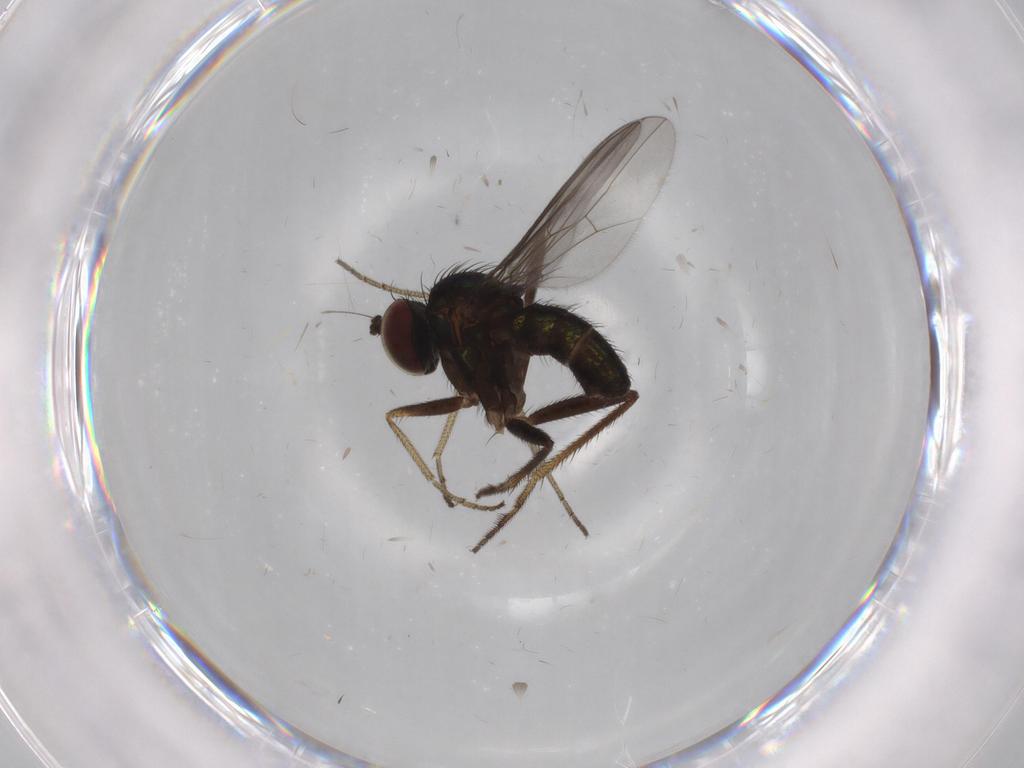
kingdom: Animalia
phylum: Arthropoda
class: Insecta
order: Diptera
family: Dolichopodidae
